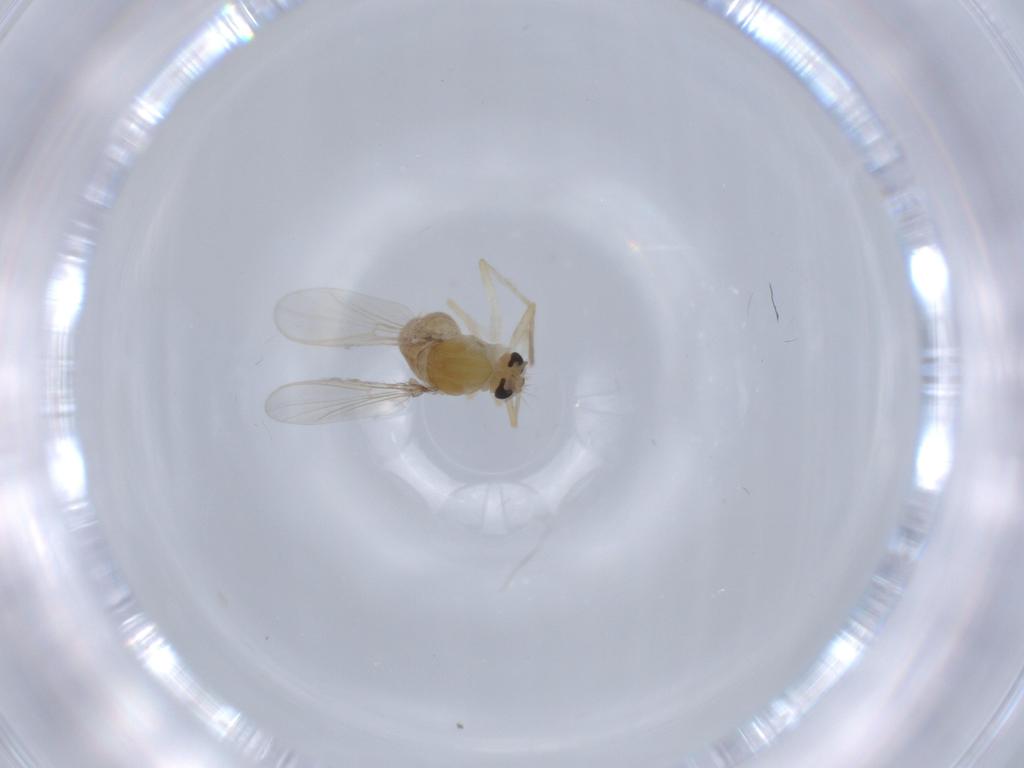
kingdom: Animalia
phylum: Arthropoda
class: Insecta
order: Diptera
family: Chironomidae
